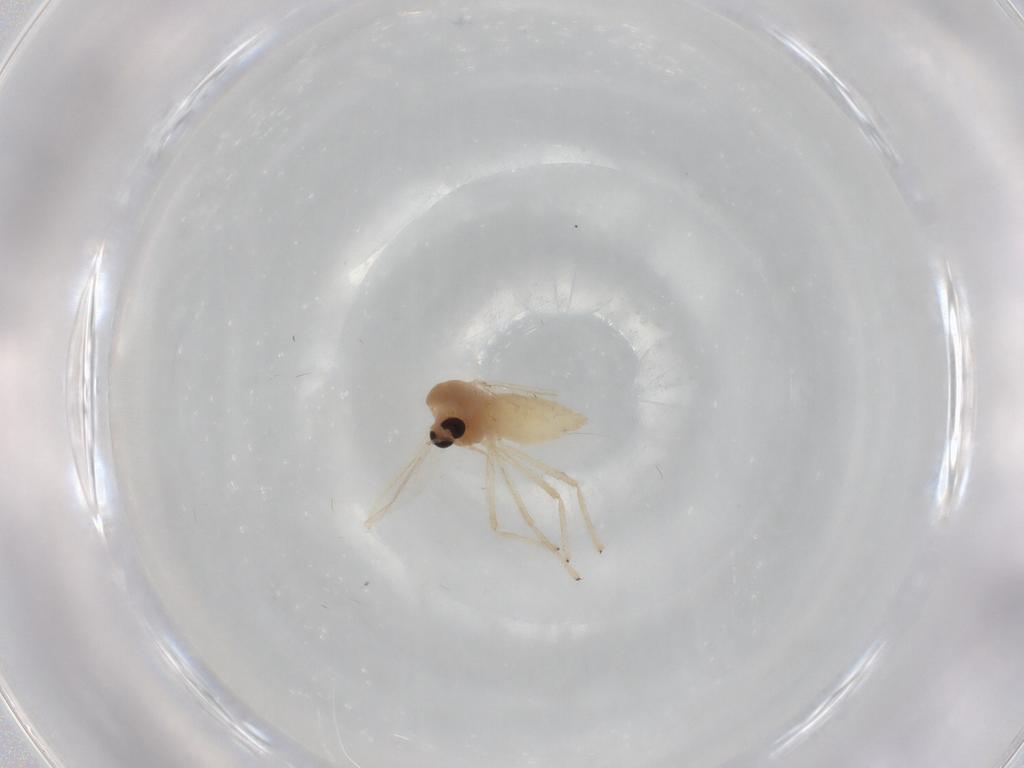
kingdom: Animalia
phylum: Arthropoda
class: Insecta
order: Diptera
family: Chironomidae
